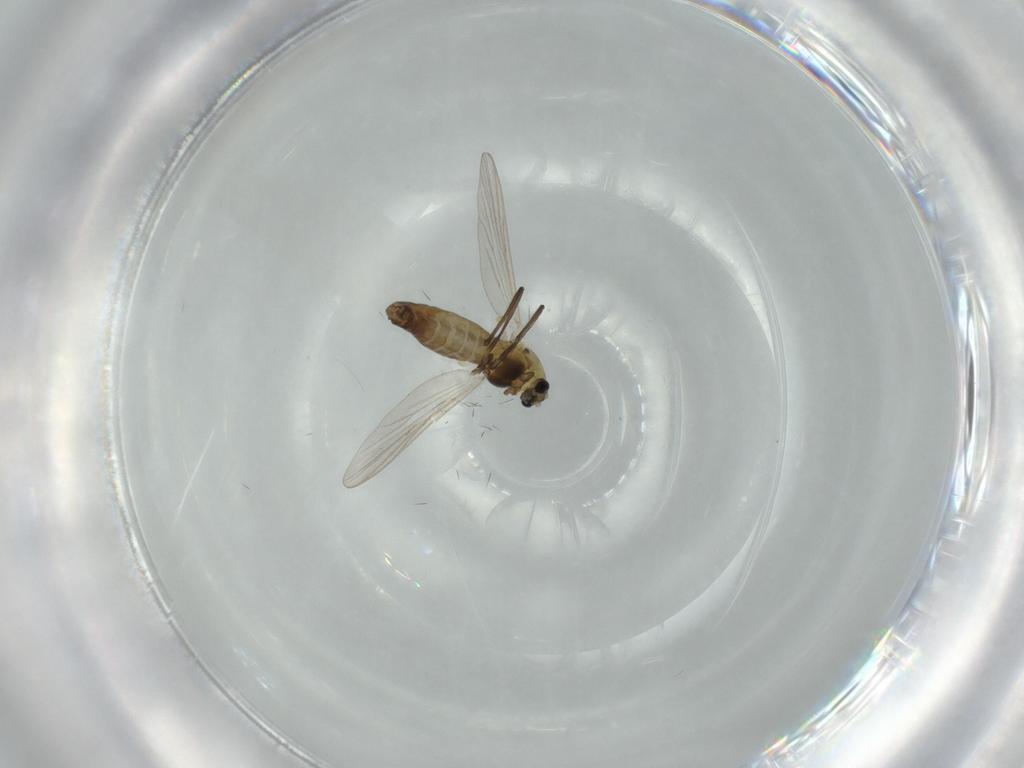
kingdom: Animalia
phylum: Arthropoda
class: Insecta
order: Diptera
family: Chironomidae
